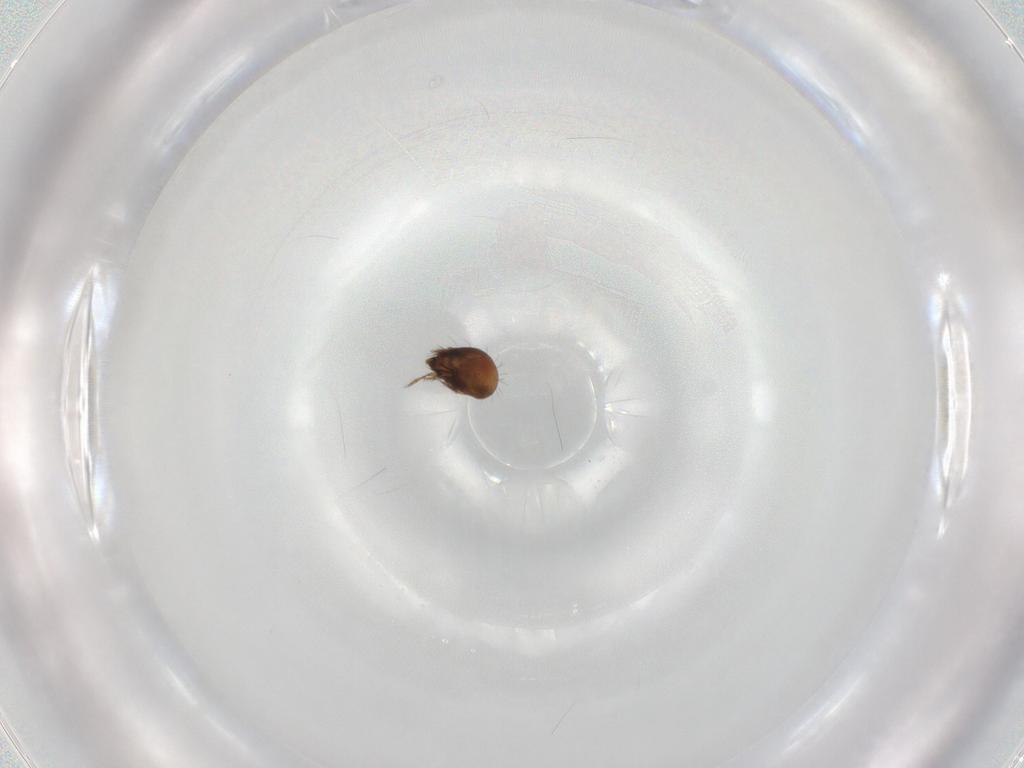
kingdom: Animalia
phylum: Arthropoda
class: Arachnida
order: Sarcoptiformes
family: Humerobatidae
